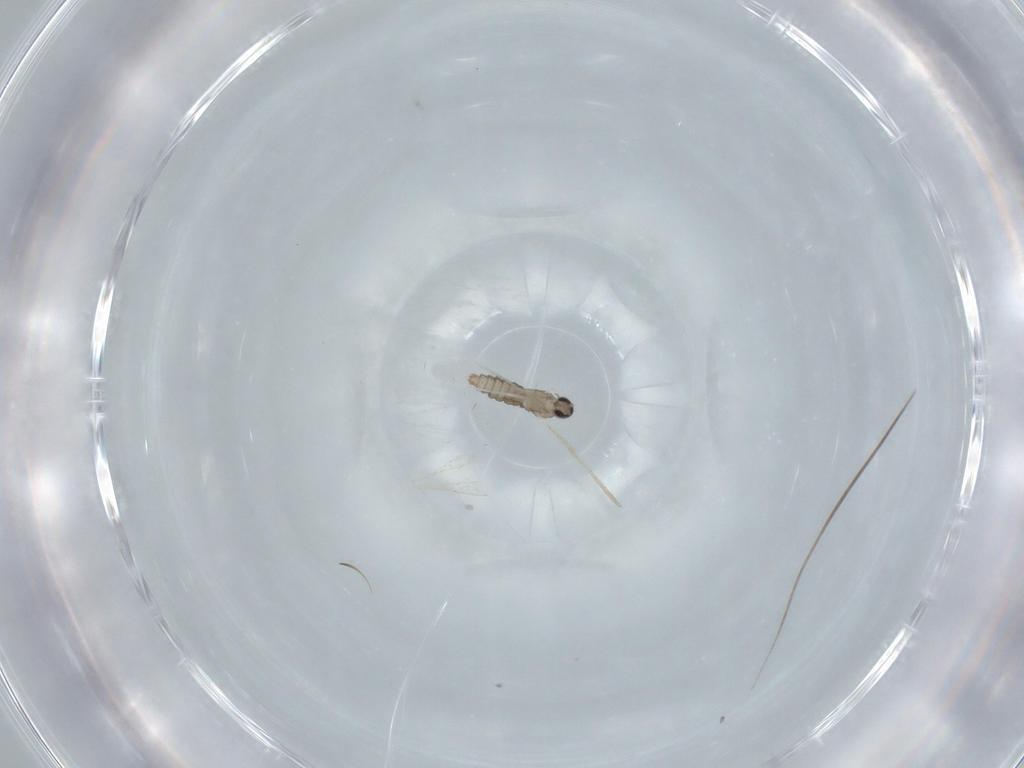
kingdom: Animalia
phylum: Arthropoda
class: Insecta
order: Diptera
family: Cecidomyiidae
